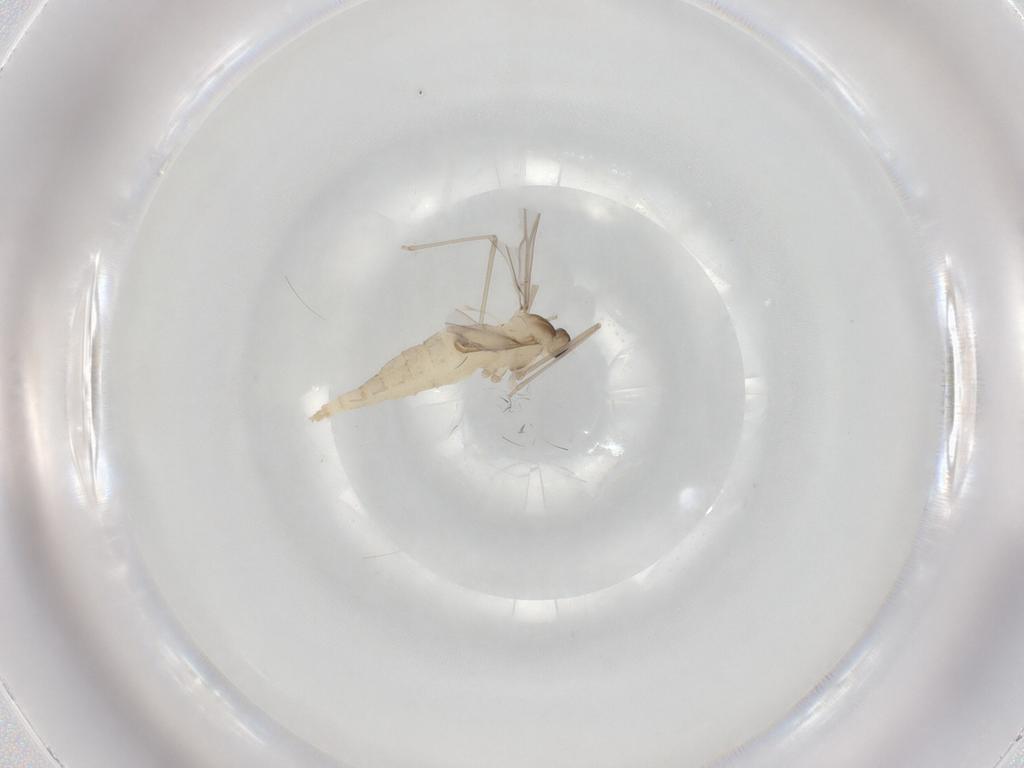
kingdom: Animalia
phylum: Arthropoda
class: Insecta
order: Diptera
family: Cecidomyiidae
